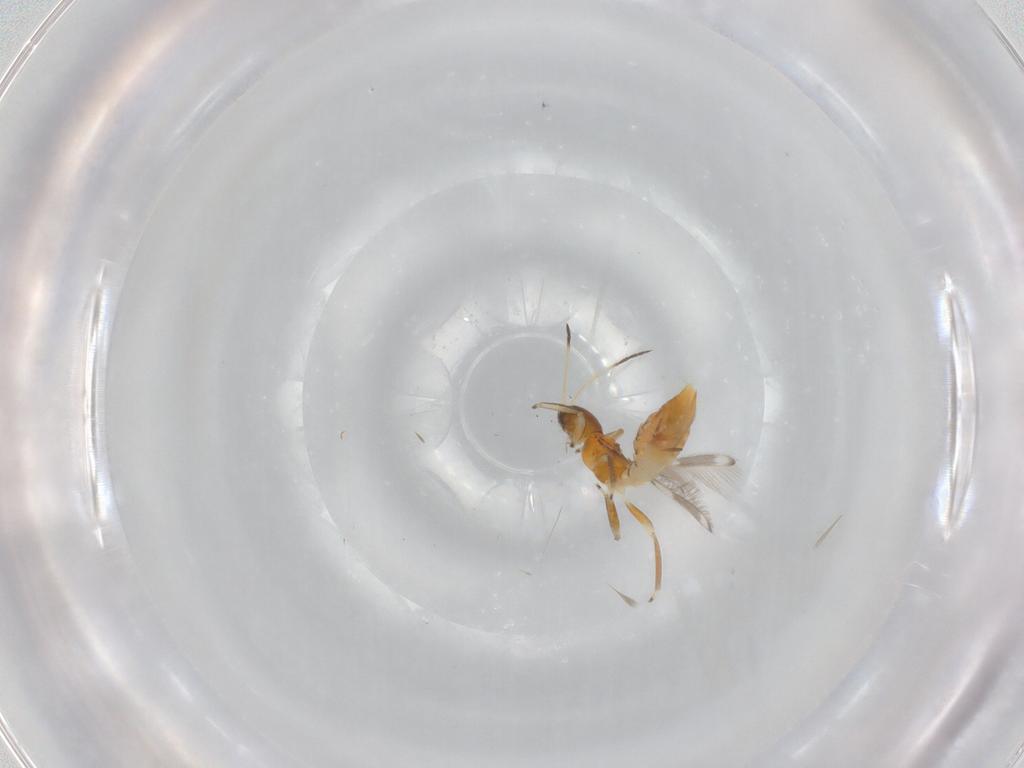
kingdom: Animalia
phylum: Arthropoda
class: Insecta
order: Thysanoptera
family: Aeolothripidae
